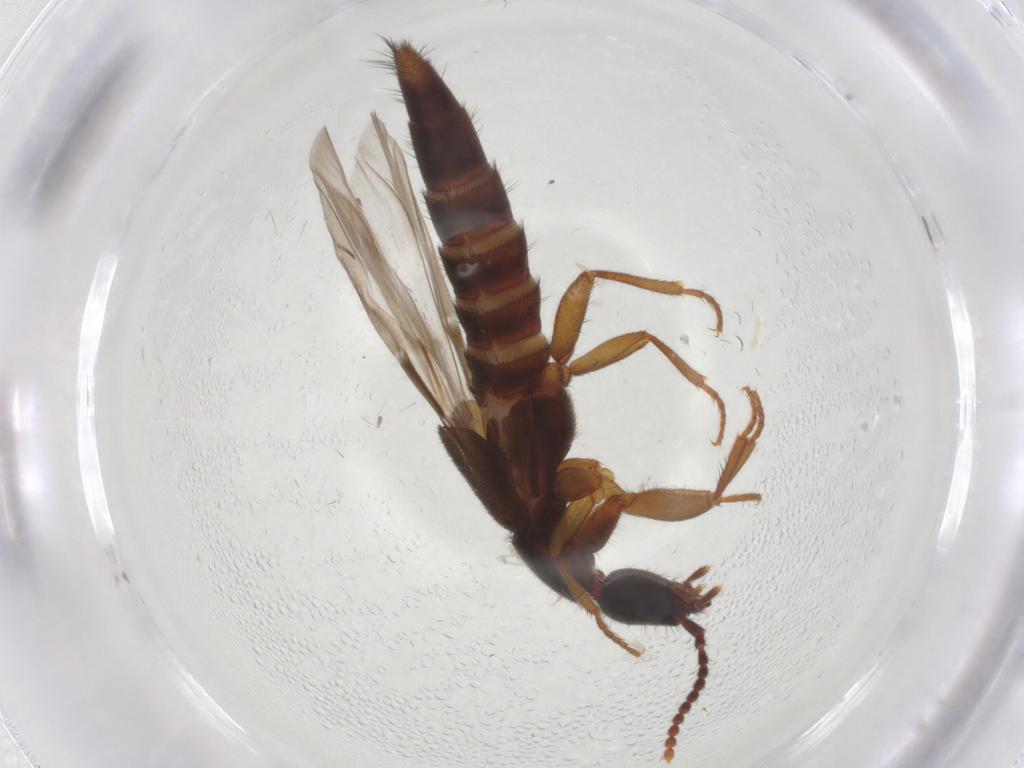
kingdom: Animalia
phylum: Arthropoda
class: Insecta
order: Coleoptera
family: Staphylinidae
